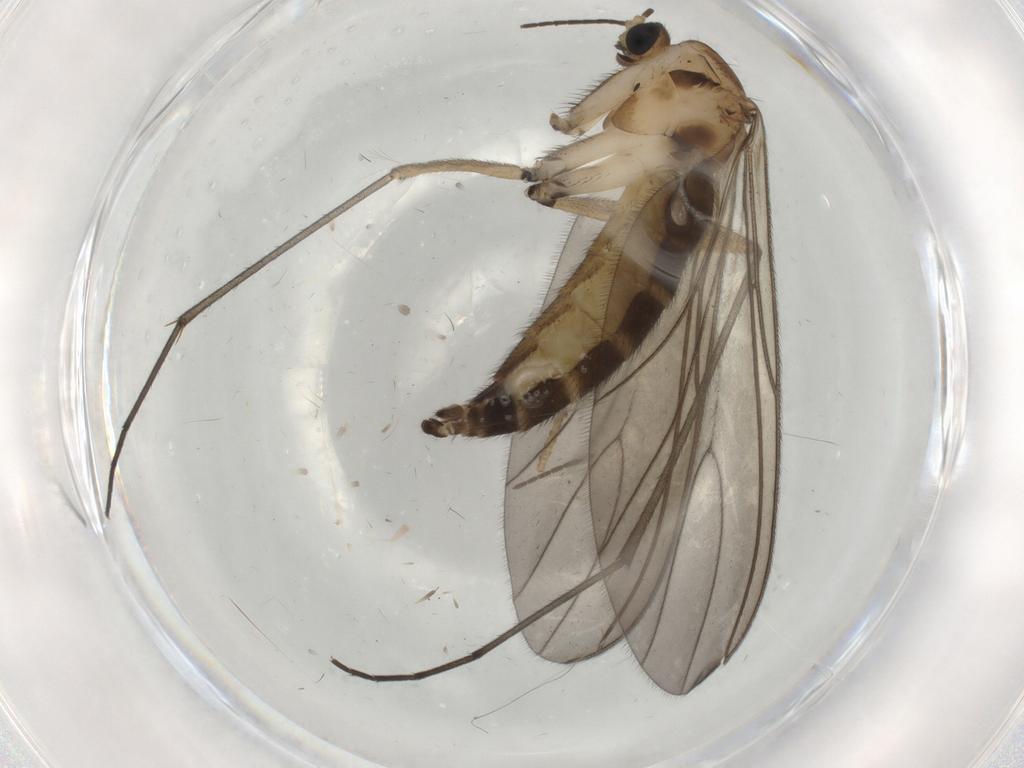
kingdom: Animalia
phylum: Arthropoda
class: Insecta
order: Diptera
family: Sciaridae
